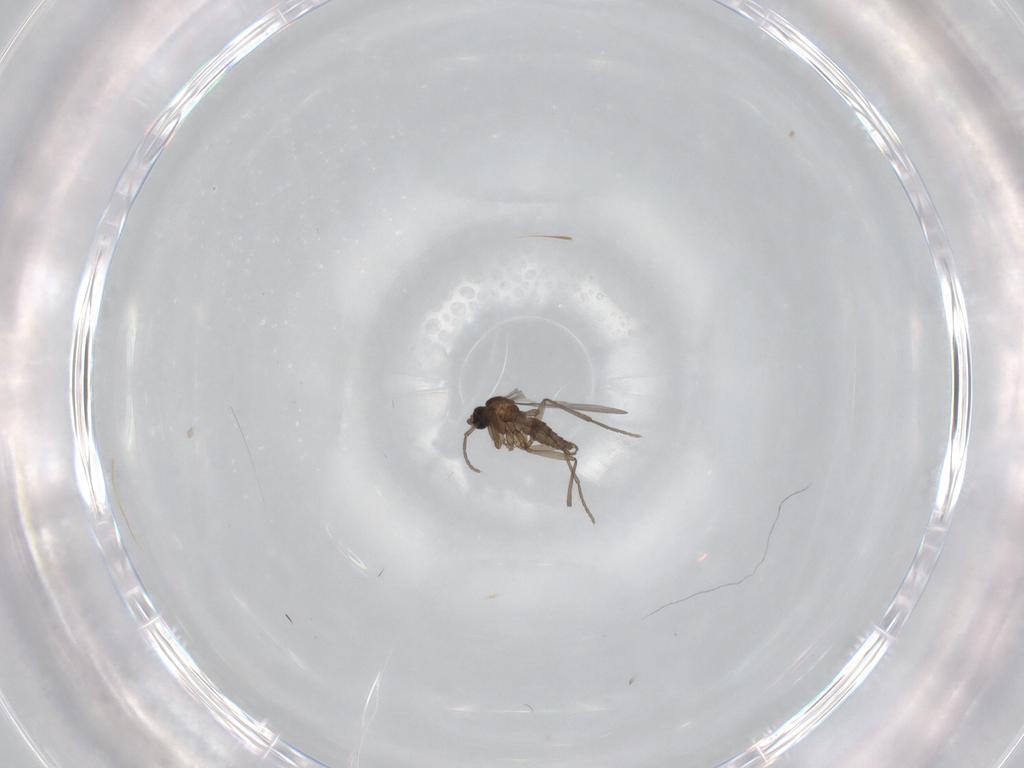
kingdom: Animalia
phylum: Arthropoda
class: Insecta
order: Diptera
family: Sciaridae
